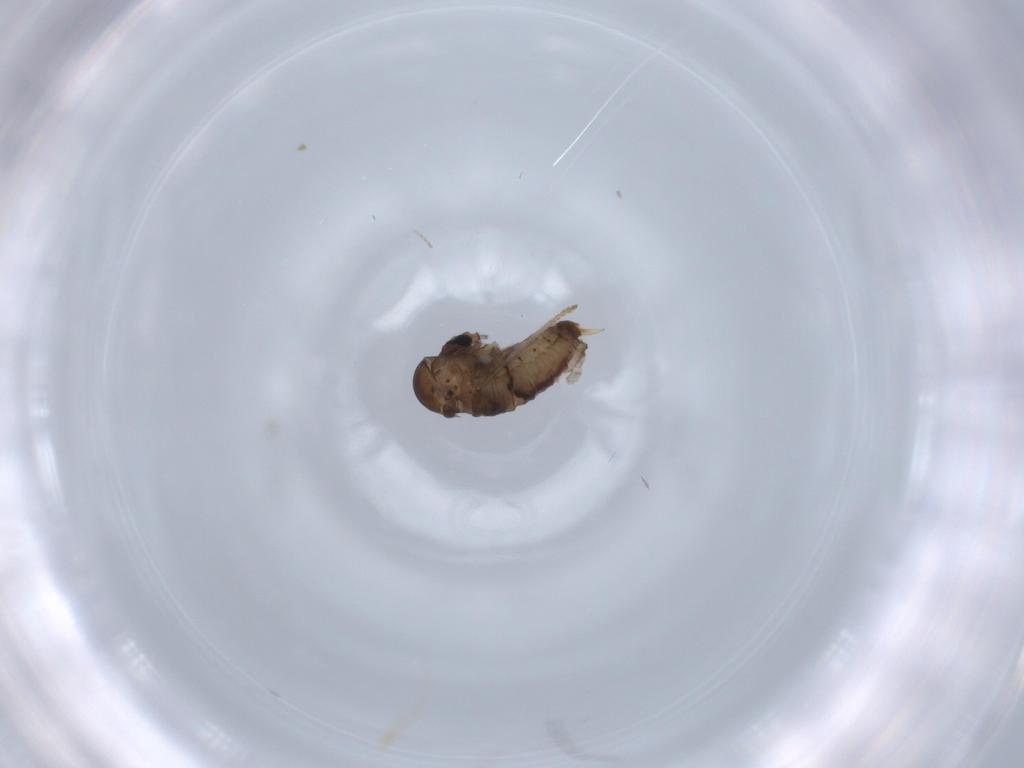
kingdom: Animalia
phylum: Arthropoda
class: Insecta
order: Diptera
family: Psychodidae
